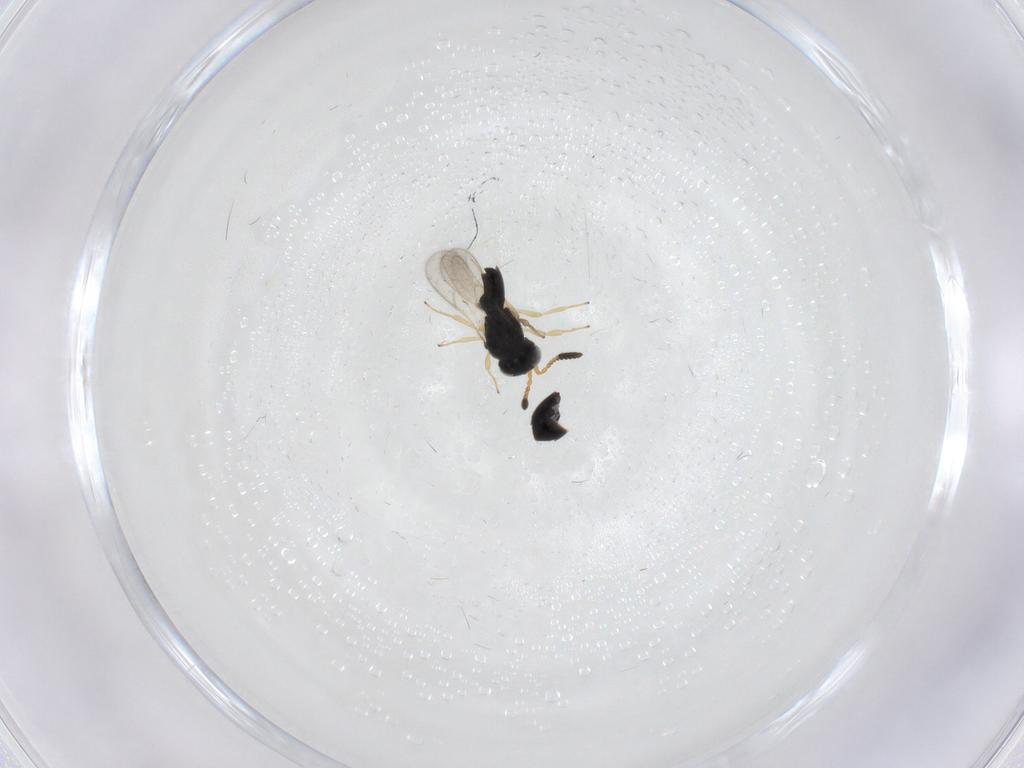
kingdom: Animalia
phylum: Arthropoda
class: Insecta
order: Hymenoptera
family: Scelionidae
